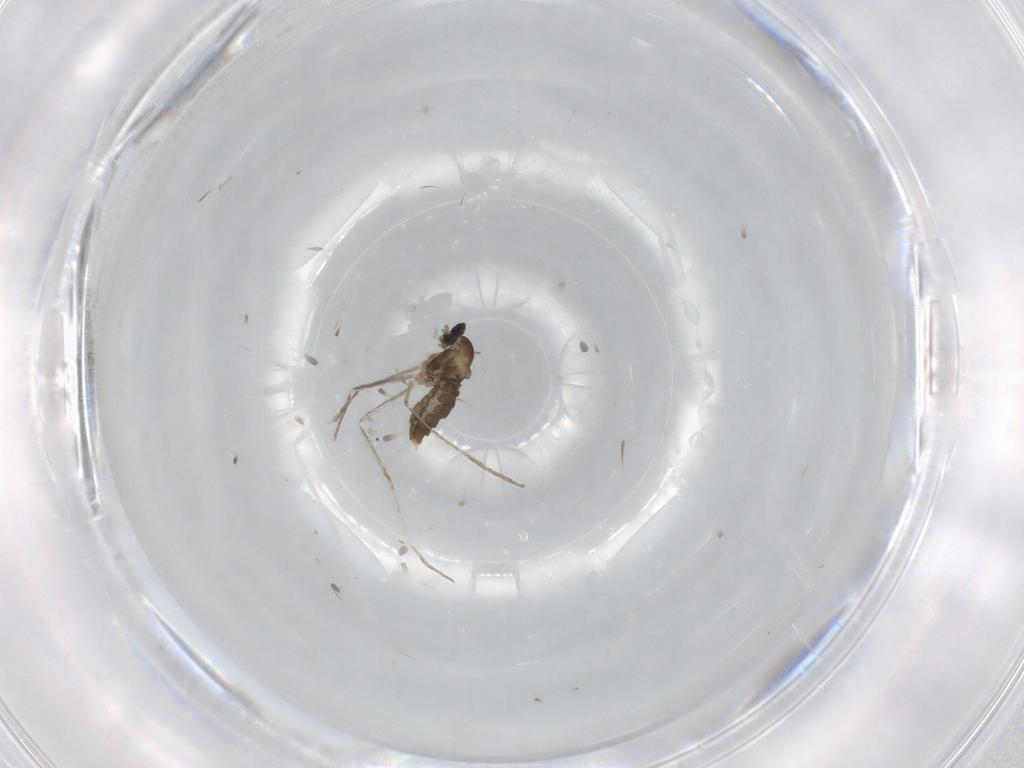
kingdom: Animalia
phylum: Arthropoda
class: Insecta
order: Diptera
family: Cecidomyiidae
